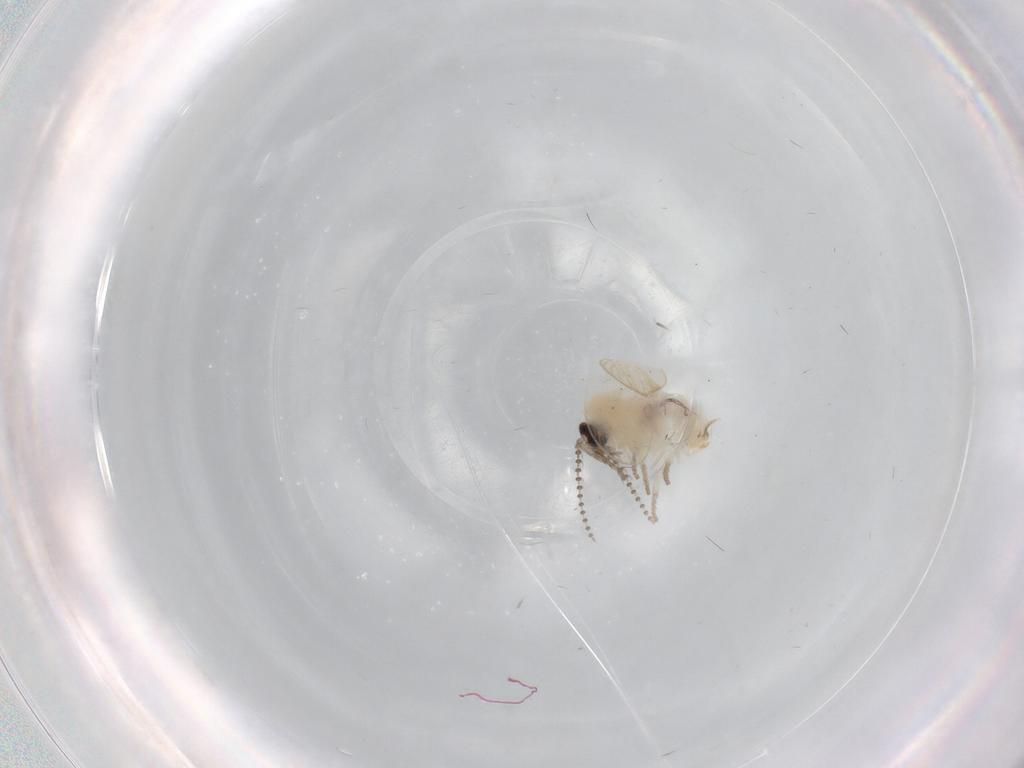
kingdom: Animalia
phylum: Arthropoda
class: Insecta
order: Diptera
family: Psychodidae
